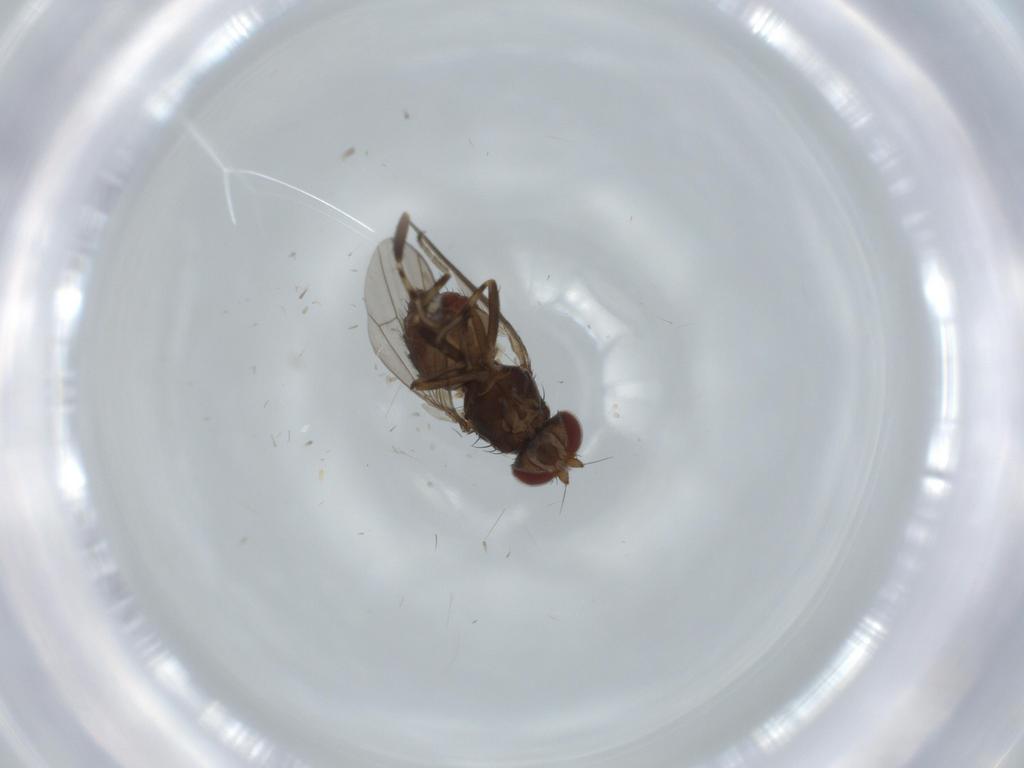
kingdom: Animalia
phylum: Arthropoda
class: Insecta
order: Diptera
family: Heleomyzidae
